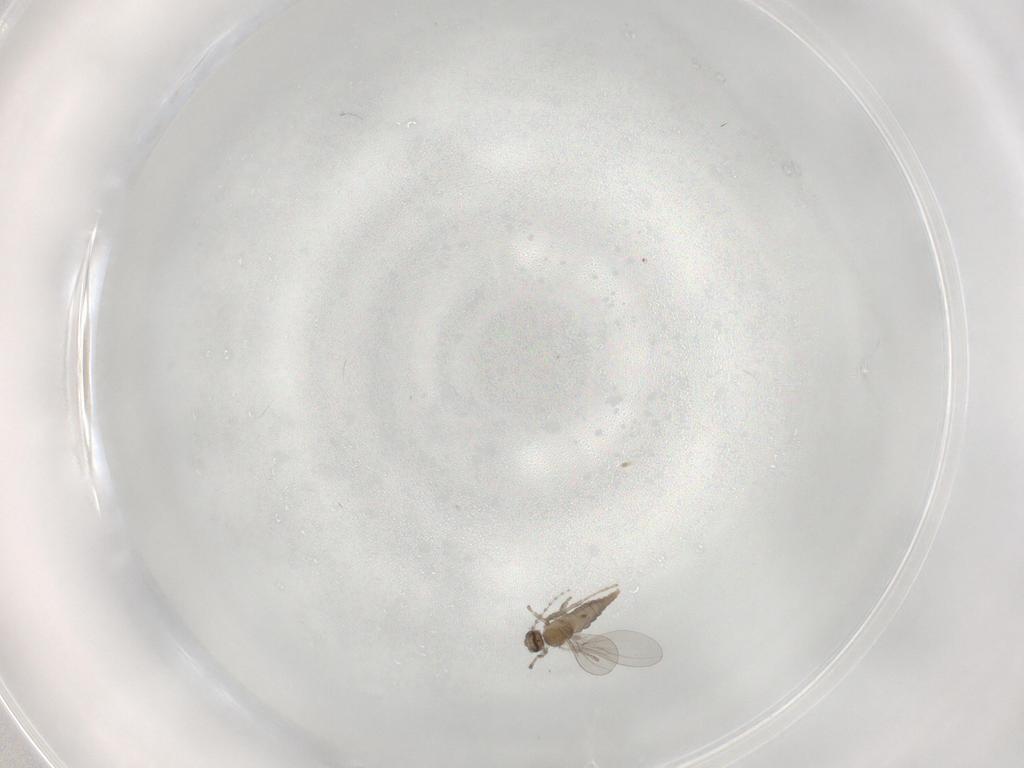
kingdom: Animalia
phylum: Arthropoda
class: Insecta
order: Diptera
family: Cecidomyiidae
